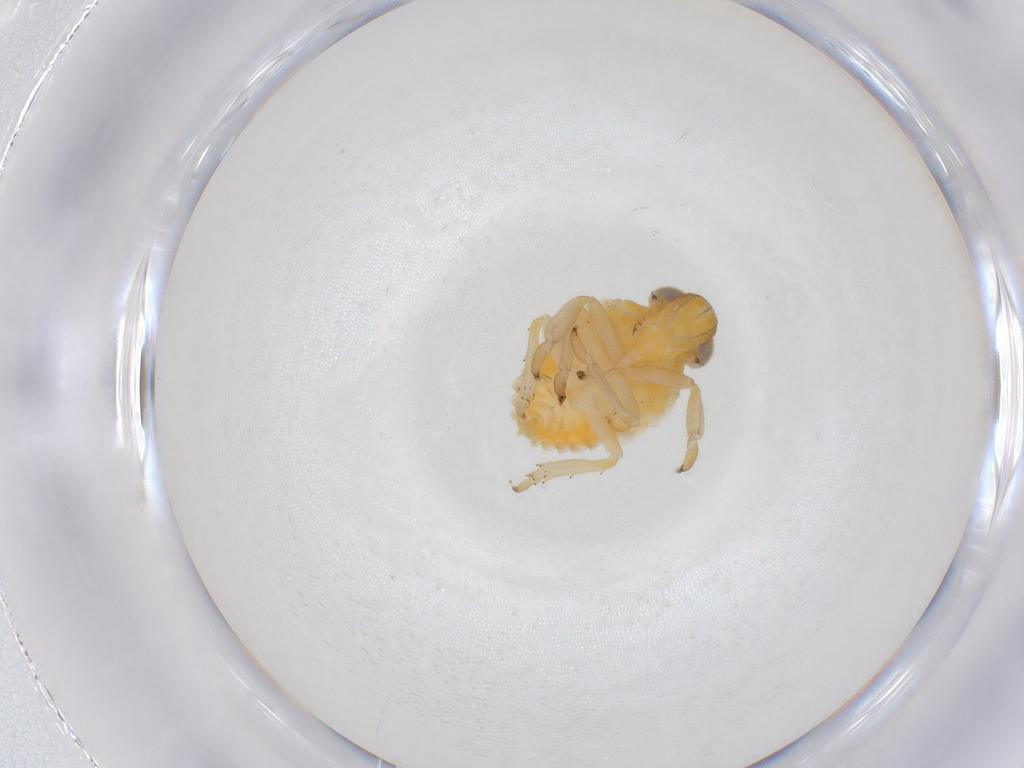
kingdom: Animalia
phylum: Arthropoda
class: Insecta
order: Hemiptera
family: Issidae
